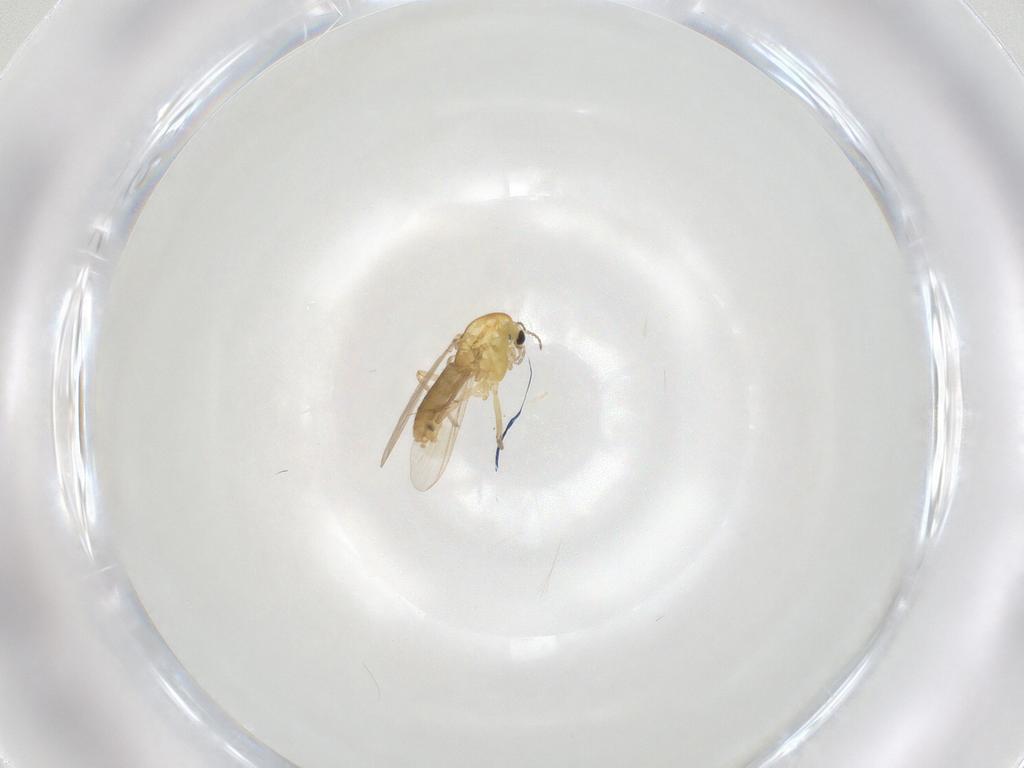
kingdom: Animalia
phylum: Arthropoda
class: Insecta
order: Diptera
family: Chironomidae
